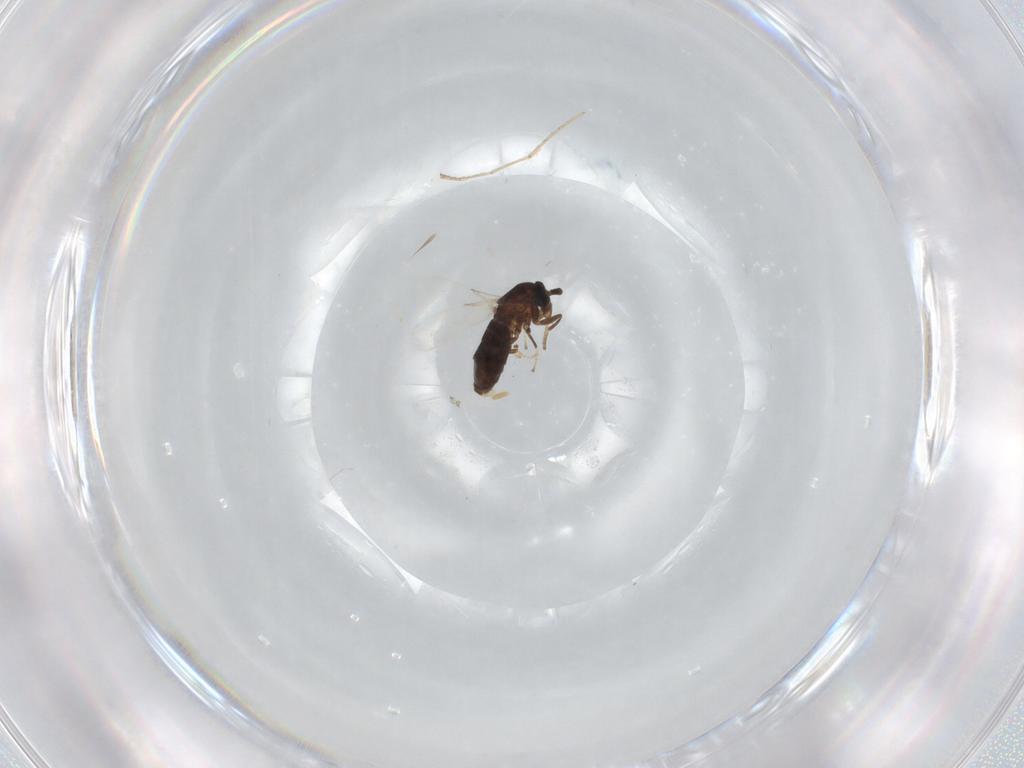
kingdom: Animalia
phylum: Arthropoda
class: Insecta
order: Diptera
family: Scatopsidae
